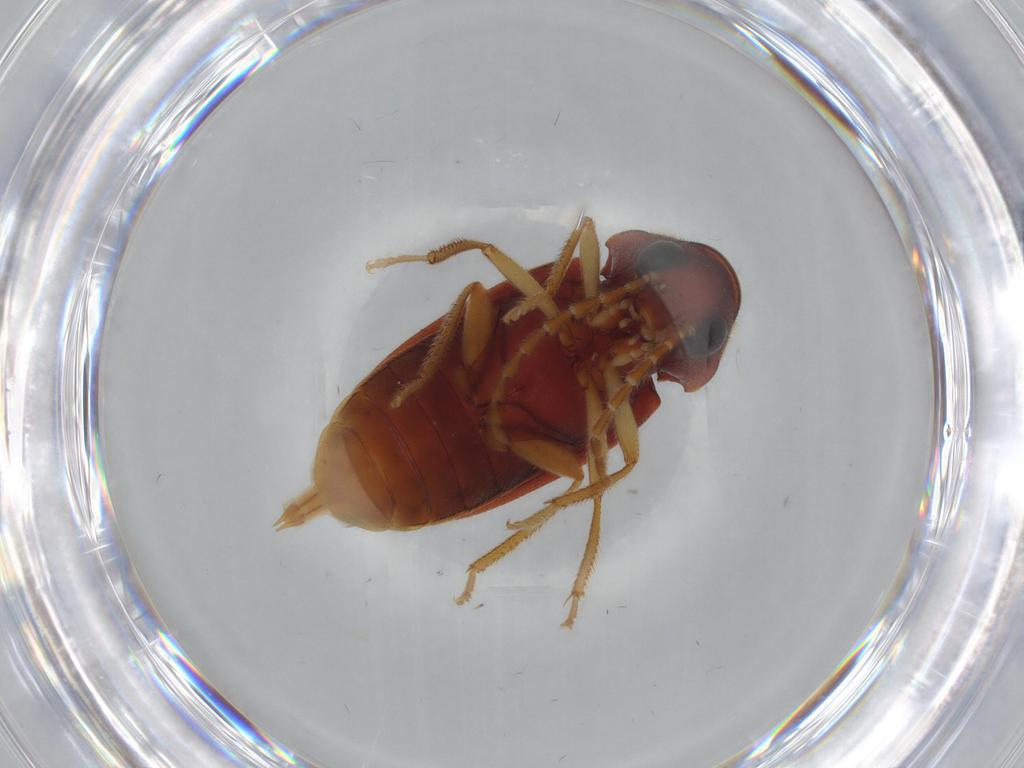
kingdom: Animalia
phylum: Arthropoda
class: Insecta
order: Coleoptera
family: Ptilodactylidae
